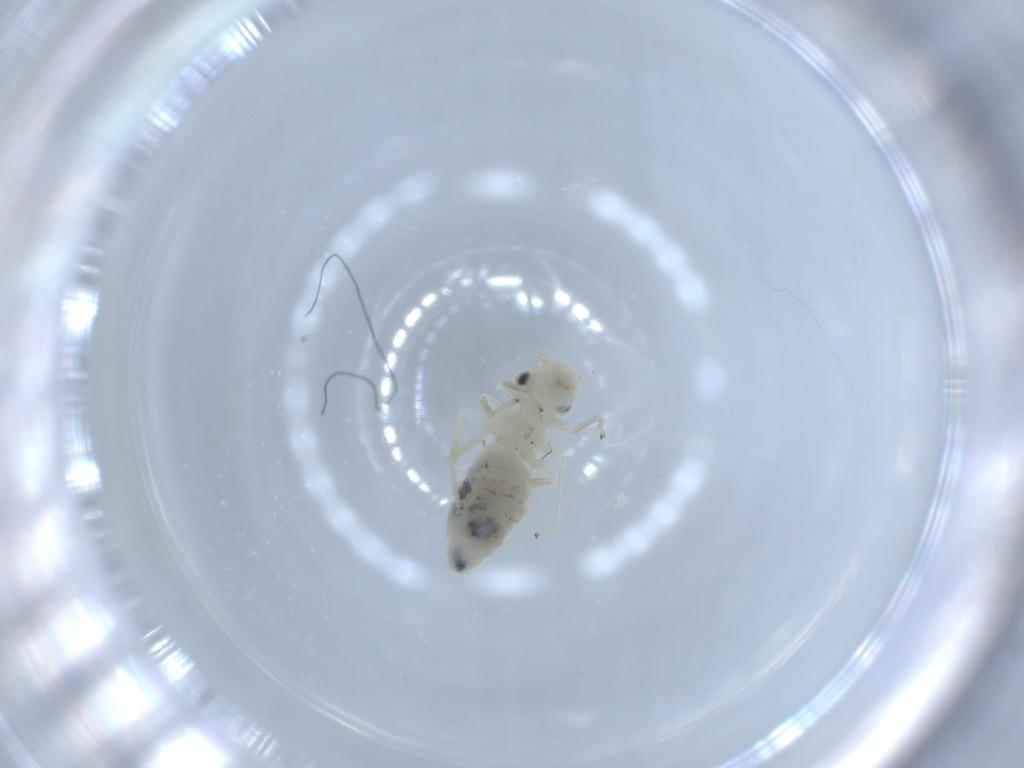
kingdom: Animalia
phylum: Arthropoda
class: Insecta
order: Psocodea
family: Caeciliusidae
